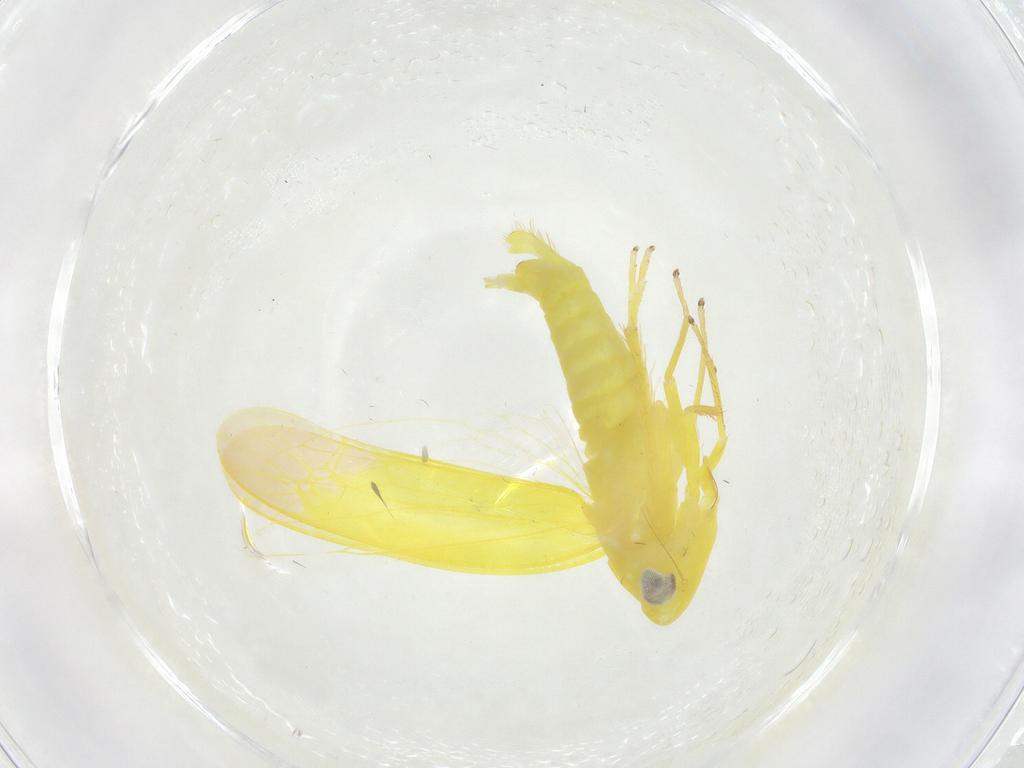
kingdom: Animalia
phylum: Arthropoda
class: Insecta
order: Hemiptera
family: Cicadellidae
